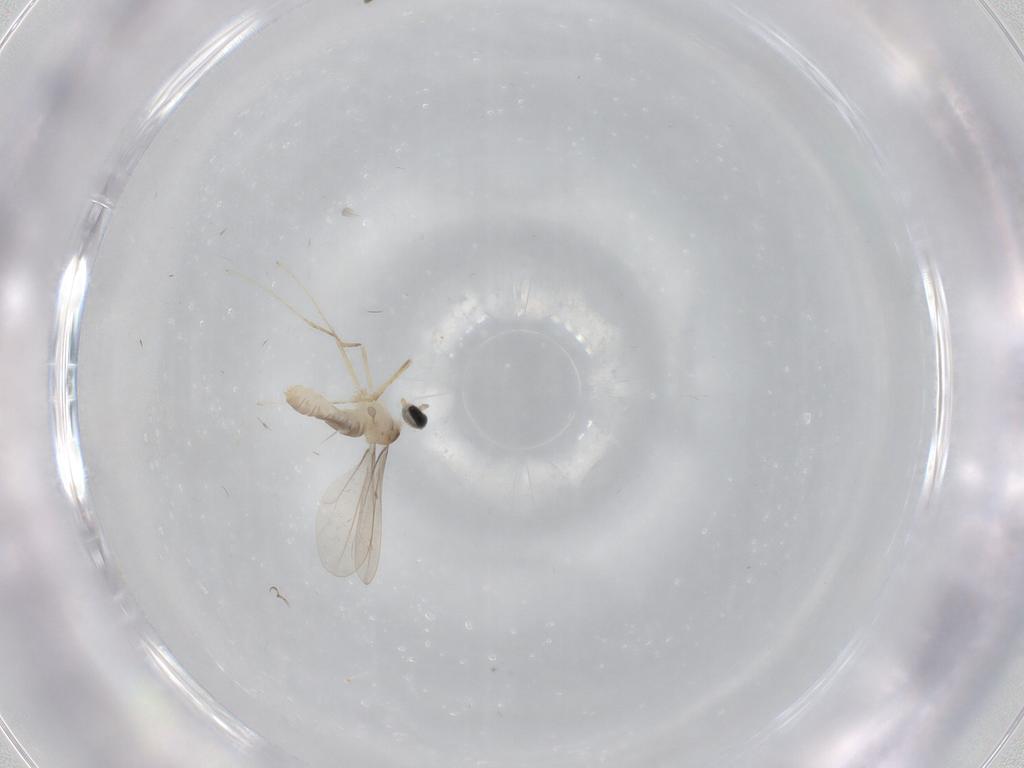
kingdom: Animalia
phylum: Arthropoda
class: Insecta
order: Diptera
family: Cecidomyiidae
